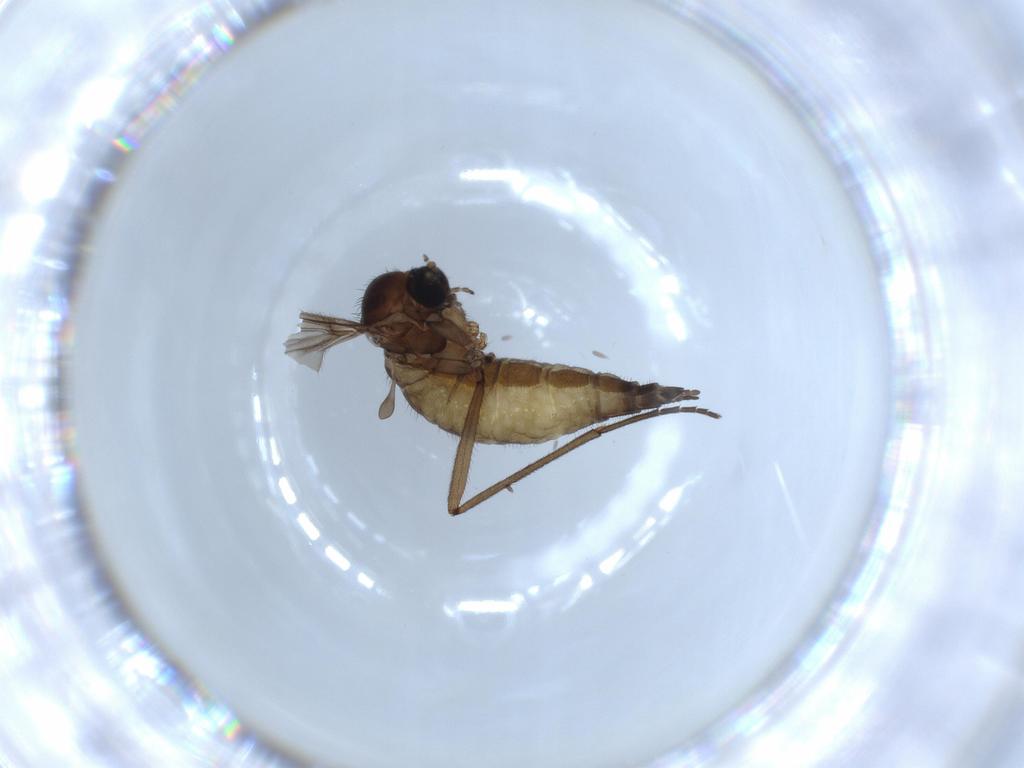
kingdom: Animalia
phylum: Arthropoda
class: Insecta
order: Diptera
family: Sciaridae
